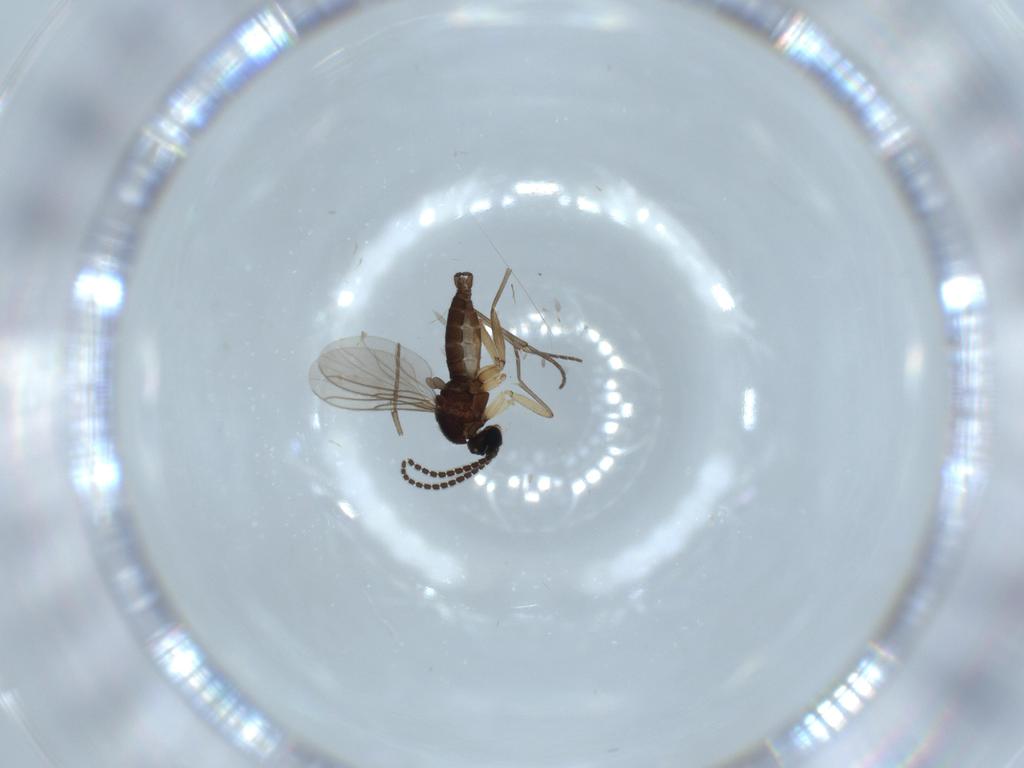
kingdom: Animalia
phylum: Arthropoda
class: Insecta
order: Diptera
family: Sciaridae
